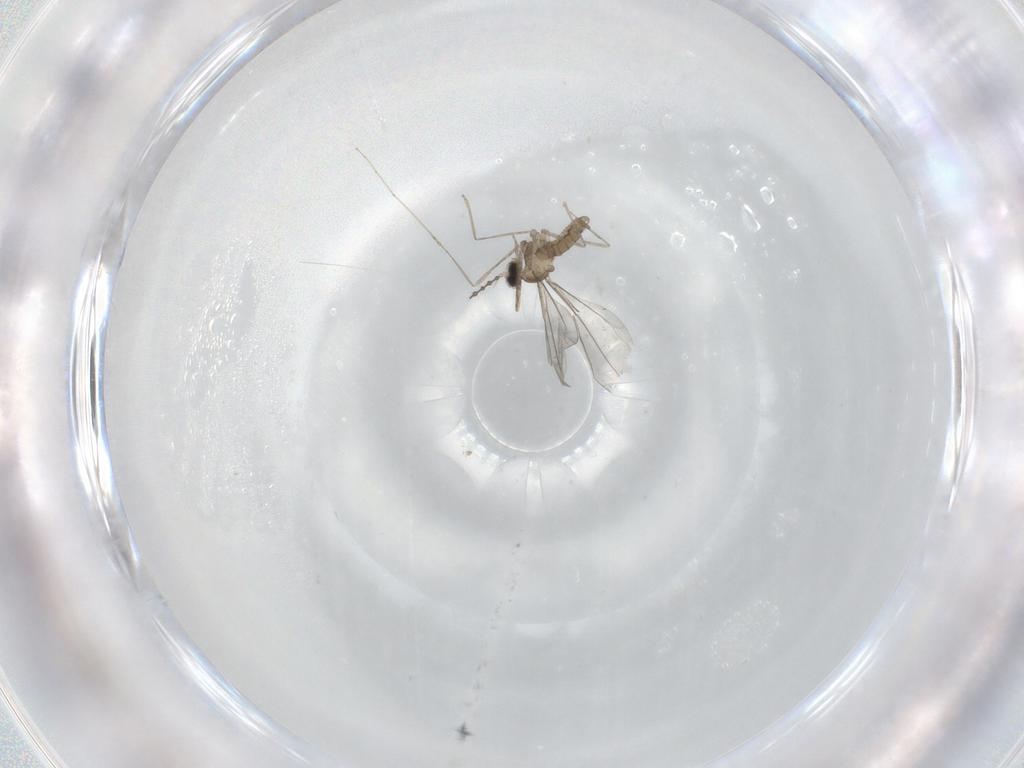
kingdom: Animalia
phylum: Arthropoda
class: Insecta
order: Diptera
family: Cecidomyiidae
